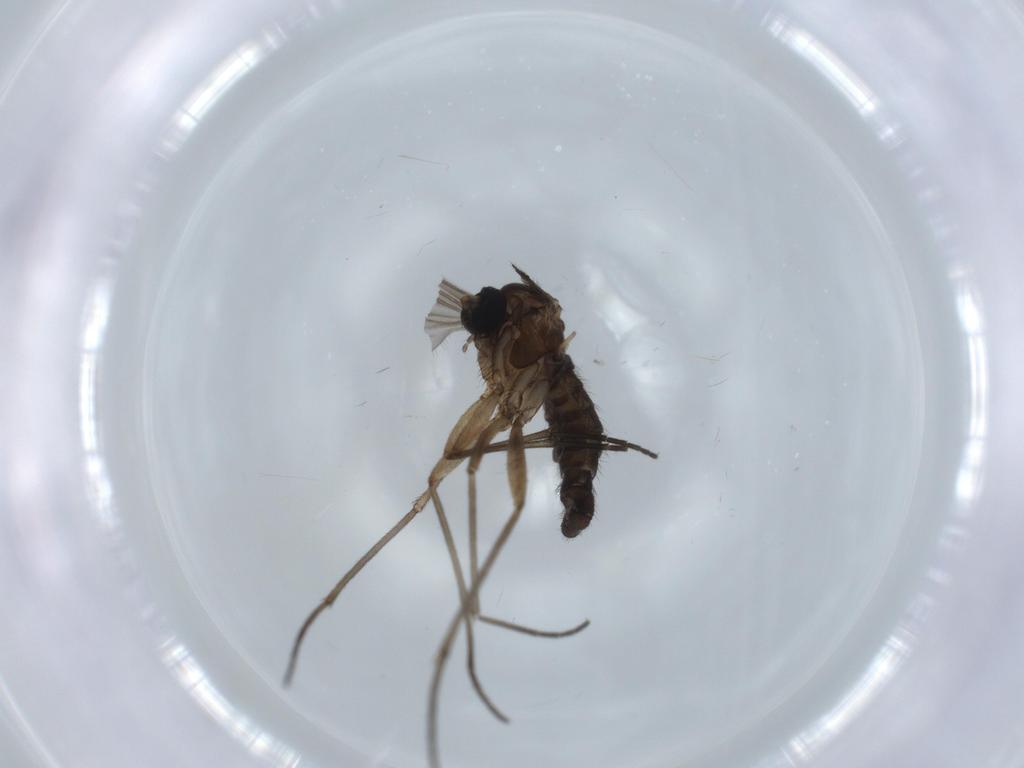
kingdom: Animalia
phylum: Arthropoda
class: Insecta
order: Diptera
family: Sciaridae
